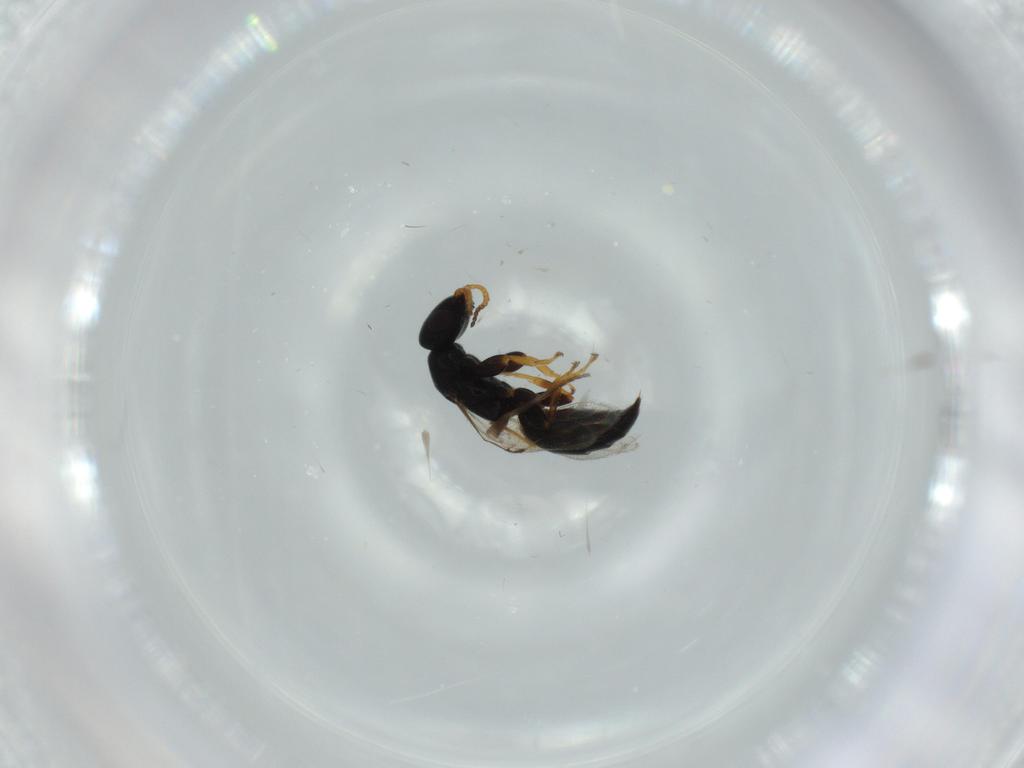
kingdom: Animalia
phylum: Arthropoda
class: Insecta
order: Hymenoptera
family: Bethylidae
